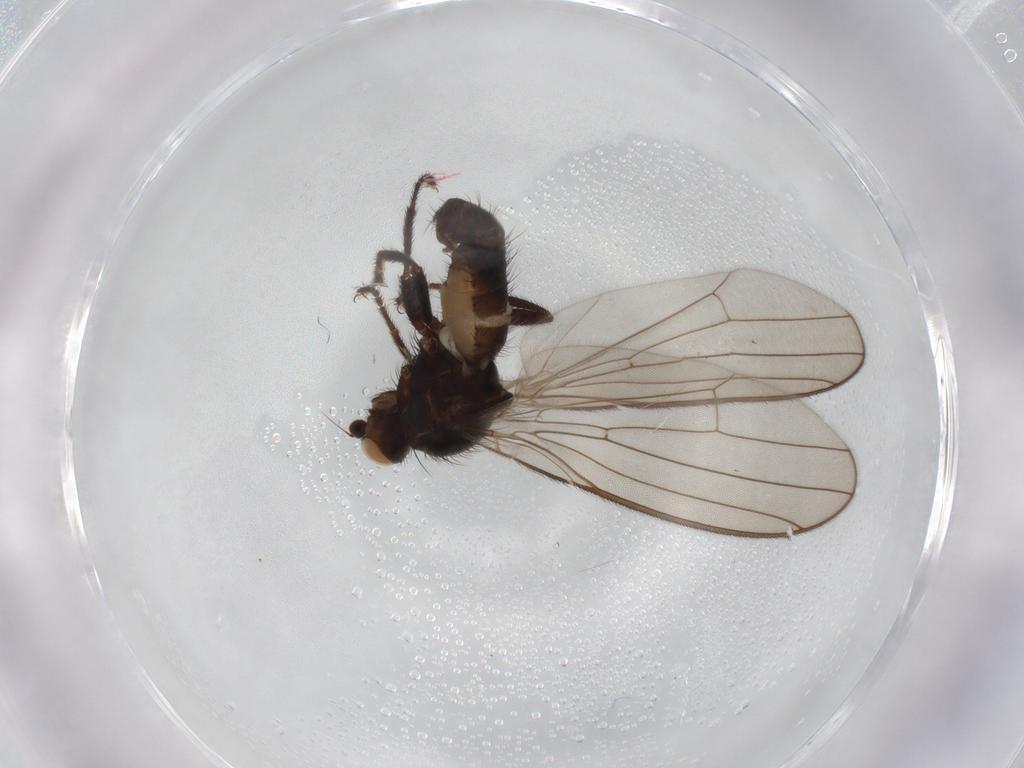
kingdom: Animalia
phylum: Arthropoda
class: Insecta
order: Diptera
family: Heleomyzidae
